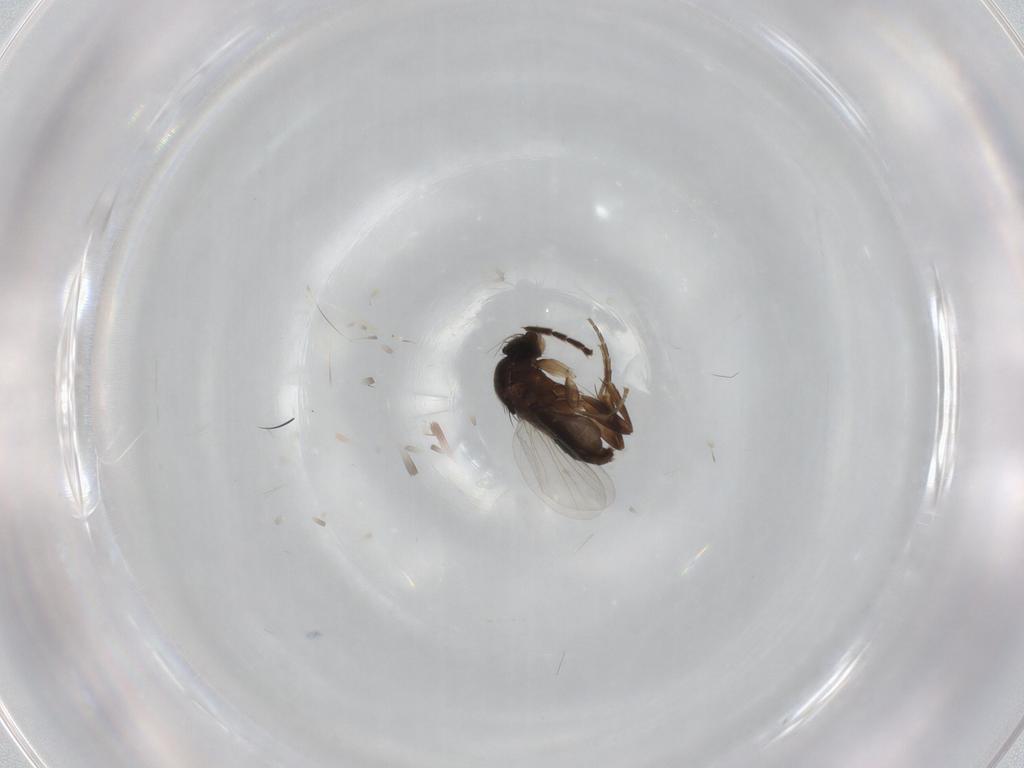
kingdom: Animalia
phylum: Arthropoda
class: Insecta
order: Diptera
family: Phoridae
